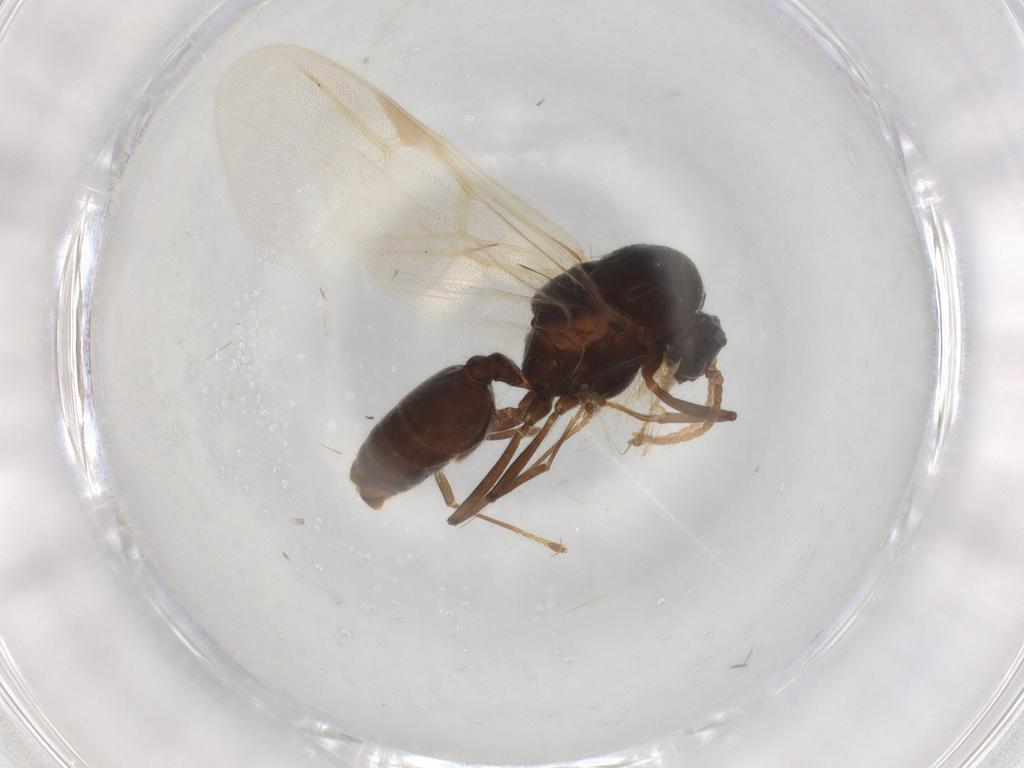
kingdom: Animalia
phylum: Arthropoda
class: Insecta
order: Hymenoptera
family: Formicidae
